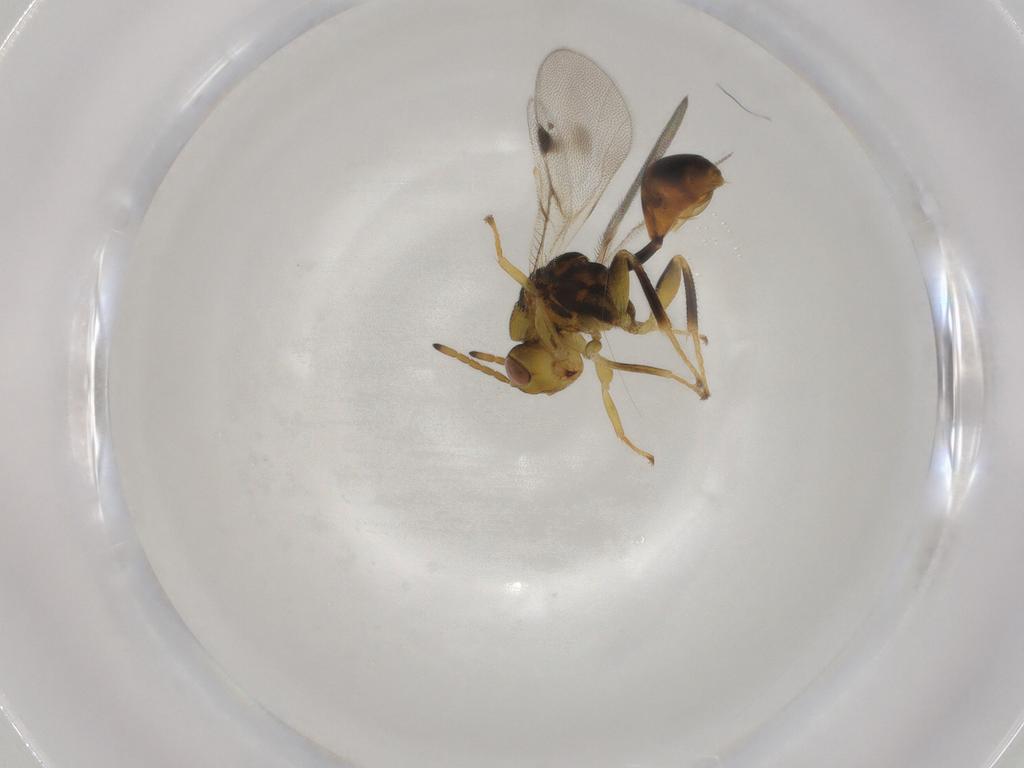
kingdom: Animalia
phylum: Arthropoda
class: Insecta
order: Hymenoptera
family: Eurytomidae
